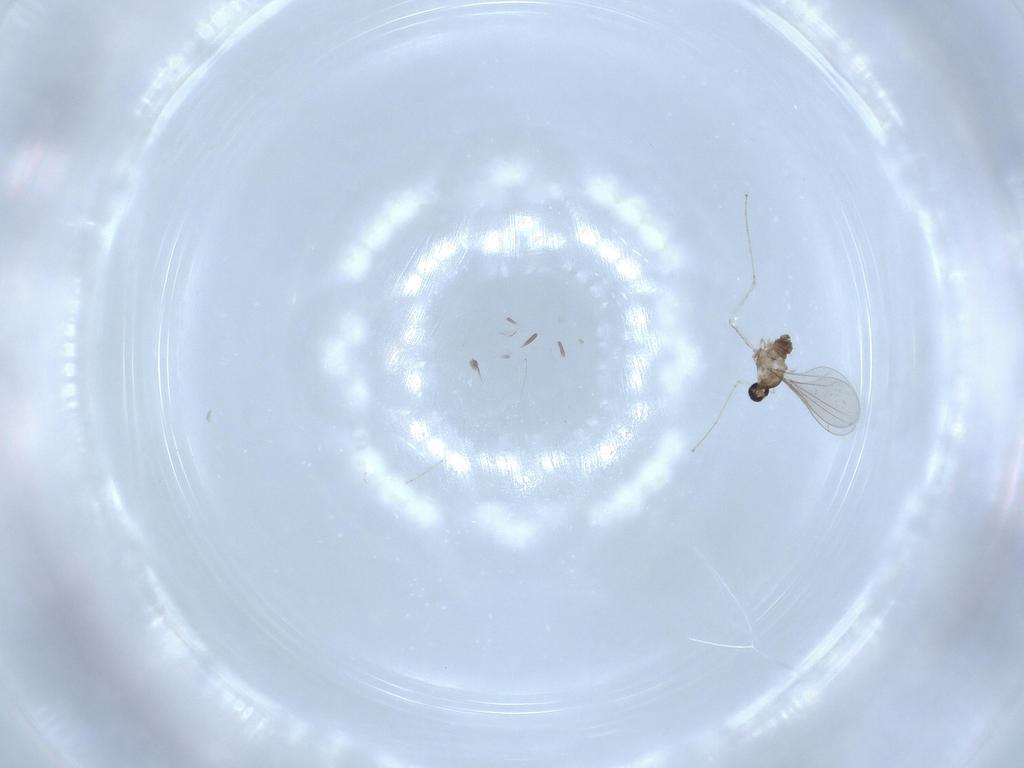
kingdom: Animalia
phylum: Arthropoda
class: Insecta
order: Diptera
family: Cecidomyiidae
